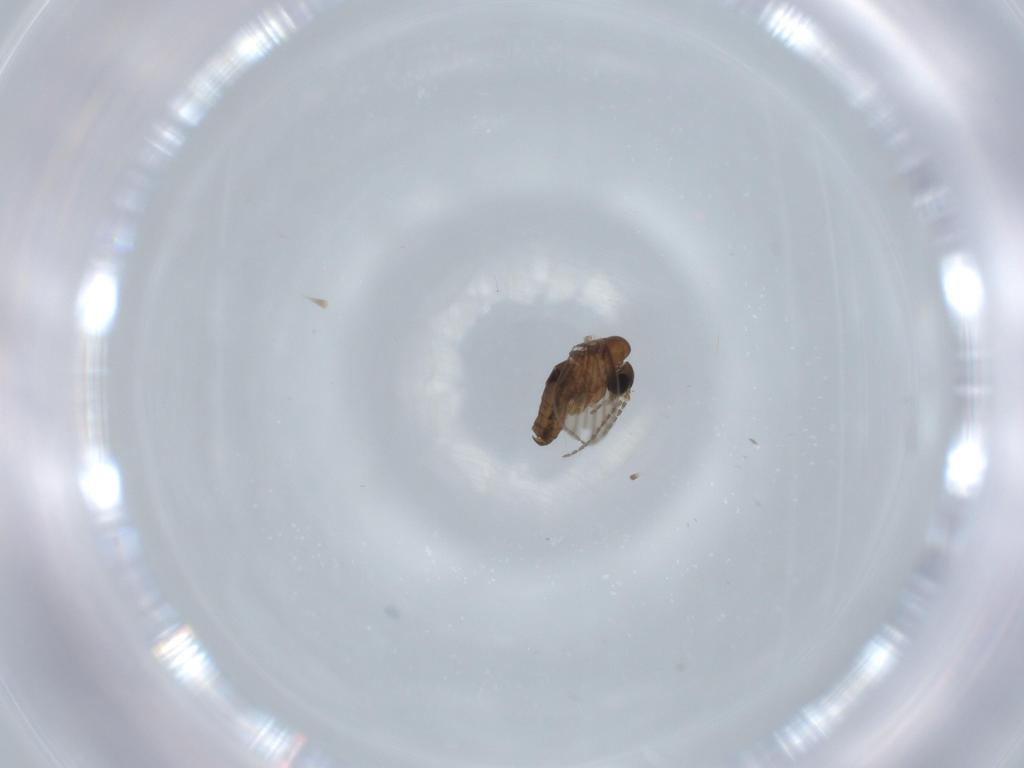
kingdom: Animalia
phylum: Arthropoda
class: Insecta
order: Diptera
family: Psychodidae
